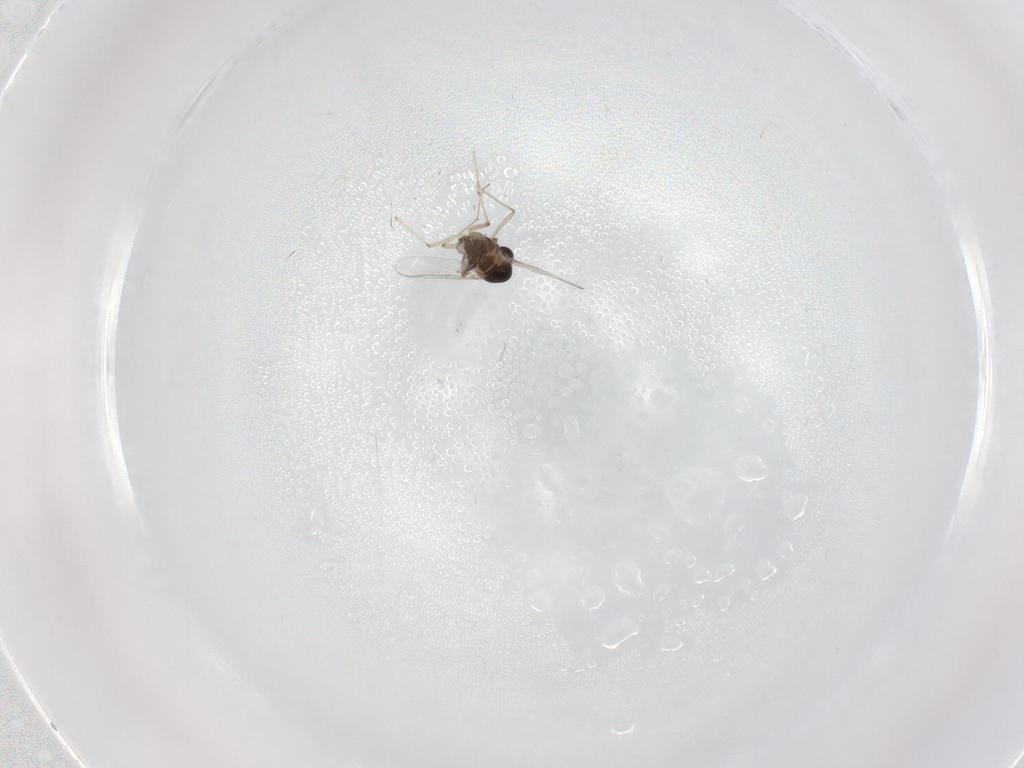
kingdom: Animalia
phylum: Arthropoda
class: Insecta
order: Diptera
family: Chironomidae
